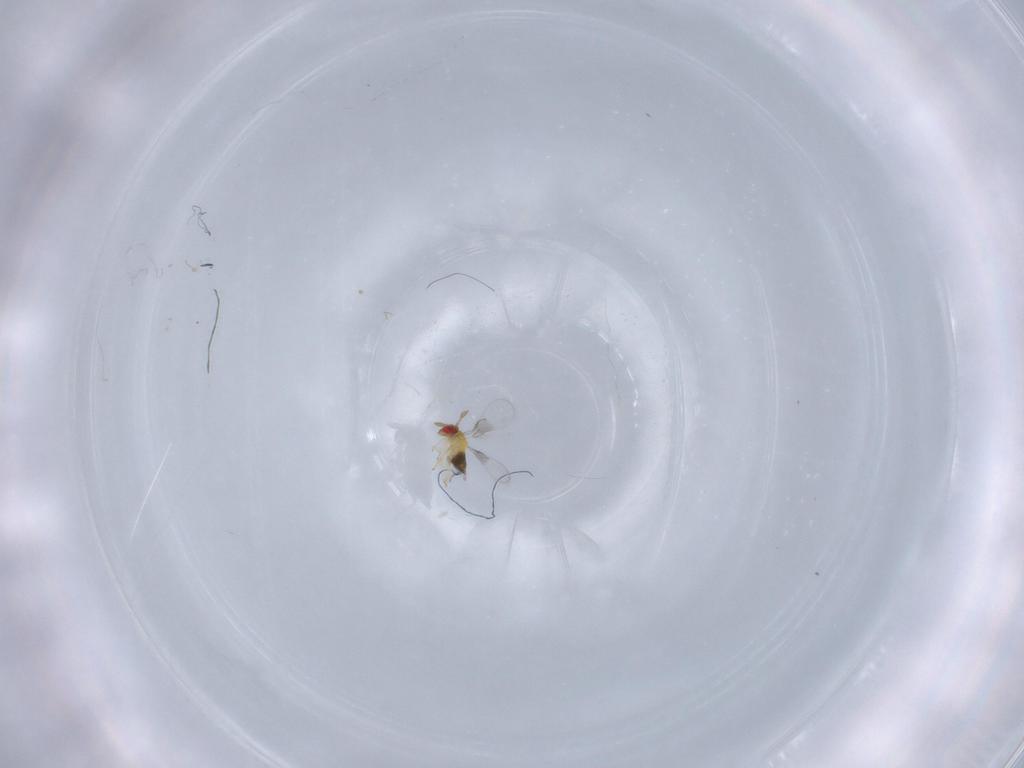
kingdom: Animalia
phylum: Arthropoda
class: Insecta
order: Hymenoptera
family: Trichogrammatidae
